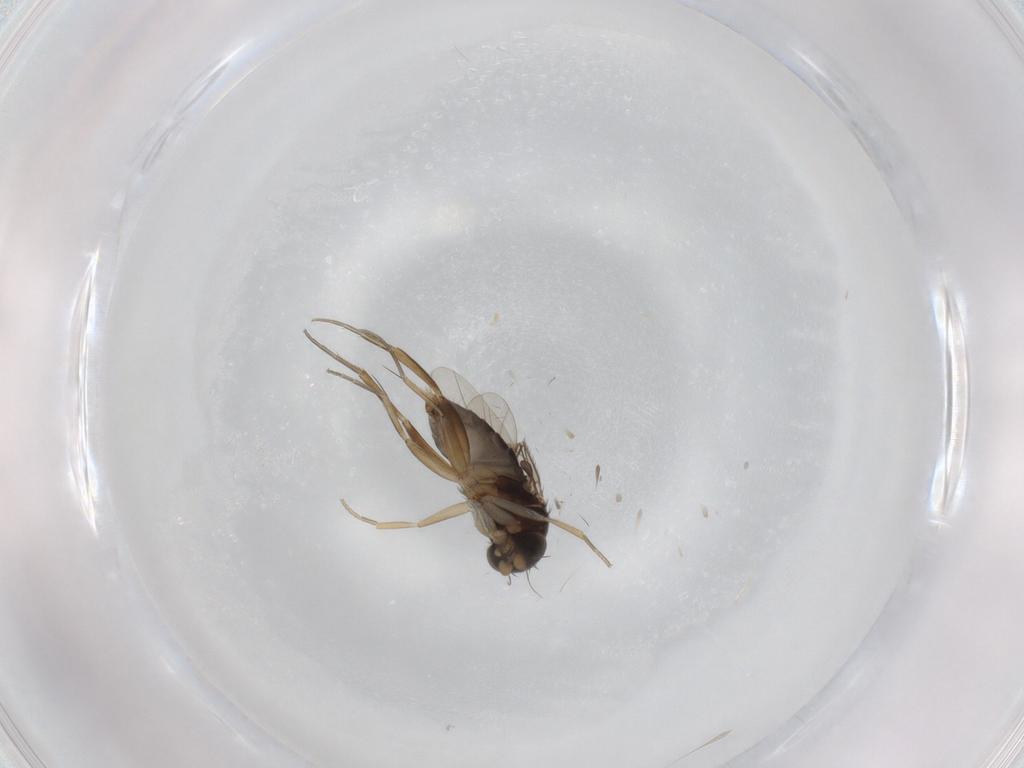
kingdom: Animalia
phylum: Arthropoda
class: Insecta
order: Diptera
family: Phoridae
